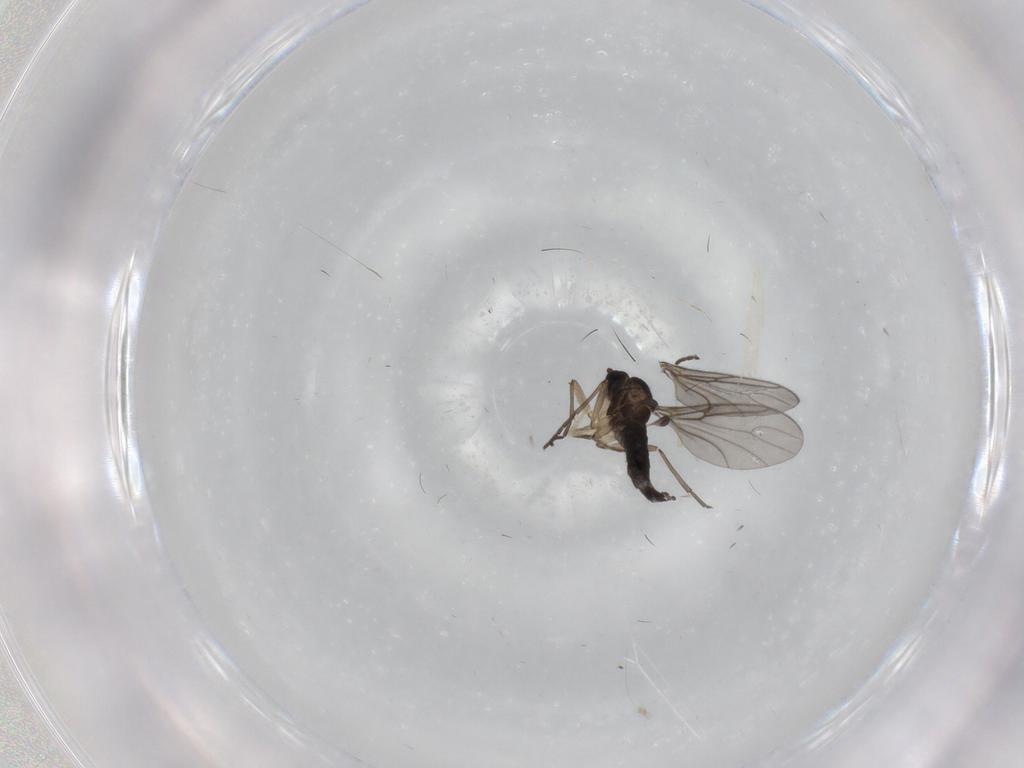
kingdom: Animalia
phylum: Arthropoda
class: Insecta
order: Diptera
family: Sciaridae
